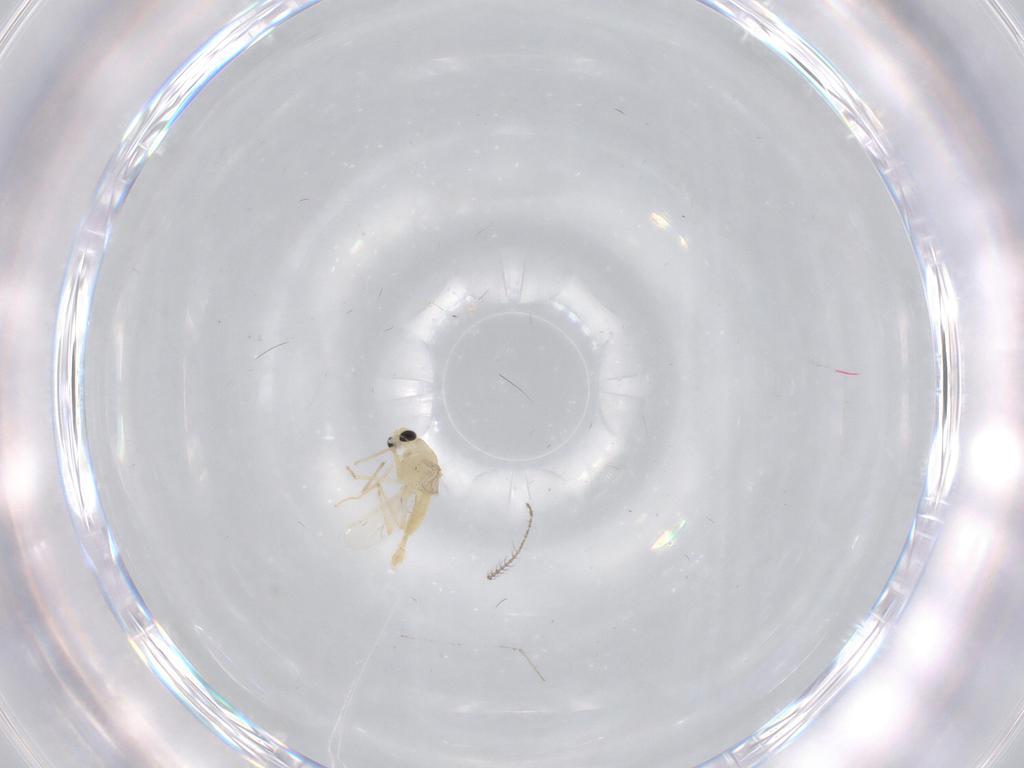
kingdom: Animalia
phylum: Arthropoda
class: Insecta
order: Diptera
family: Chironomidae
